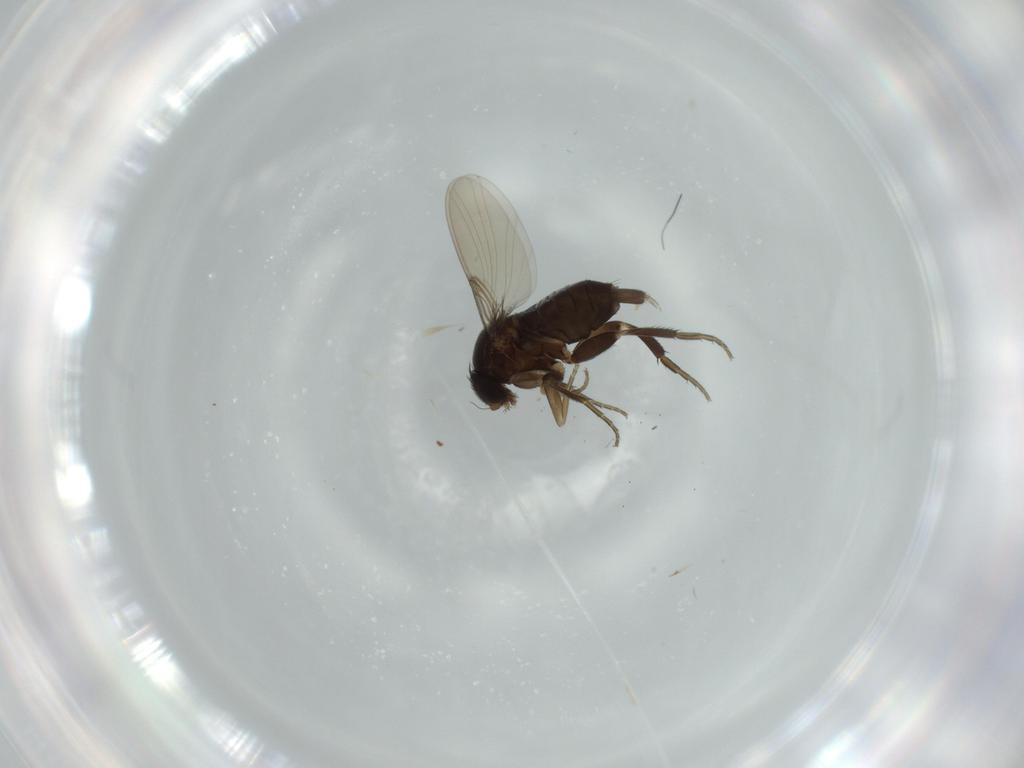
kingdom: Animalia
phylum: Arthropoda
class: Insecta
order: Diptera
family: Phoridae
